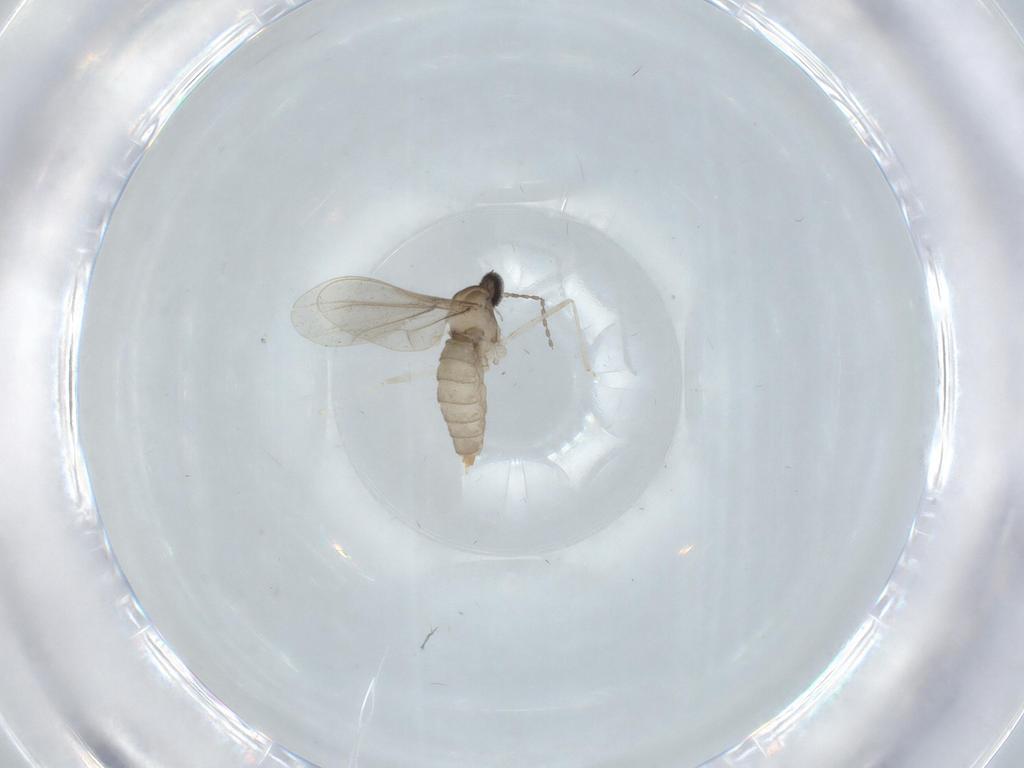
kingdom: Animalia
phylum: Arthropoda
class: Insecta
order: Diptera
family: Cecidomyiidae
